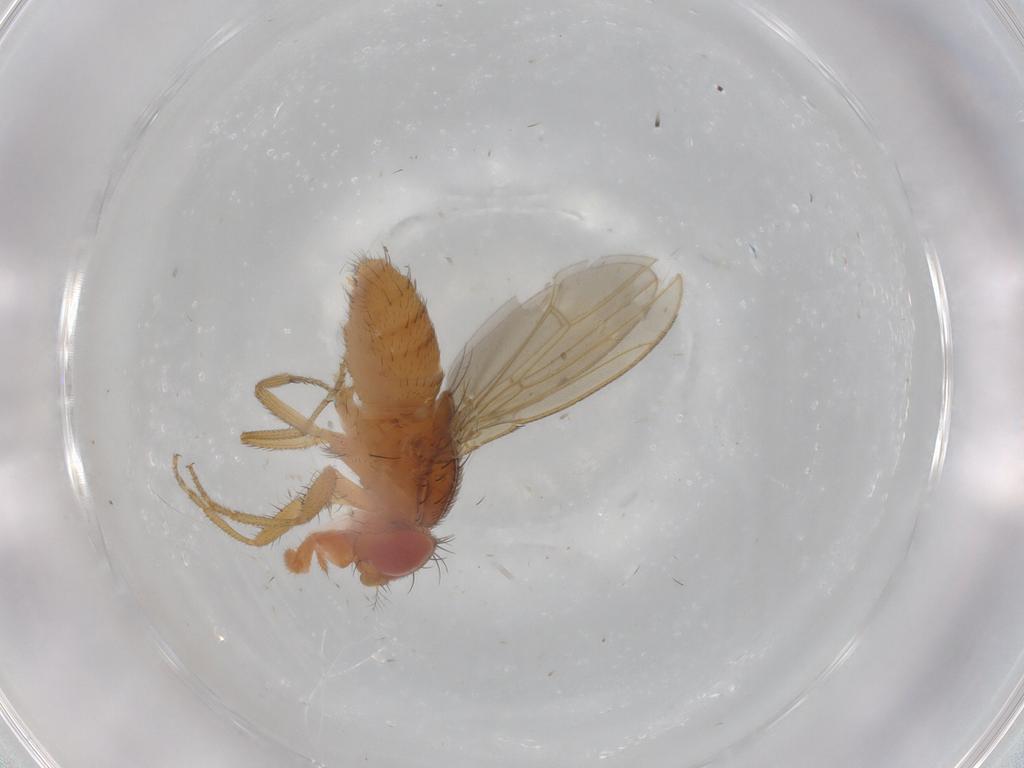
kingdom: Animalia
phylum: Arthropoda
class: Insecta
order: Diptera
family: Drosophilidae
